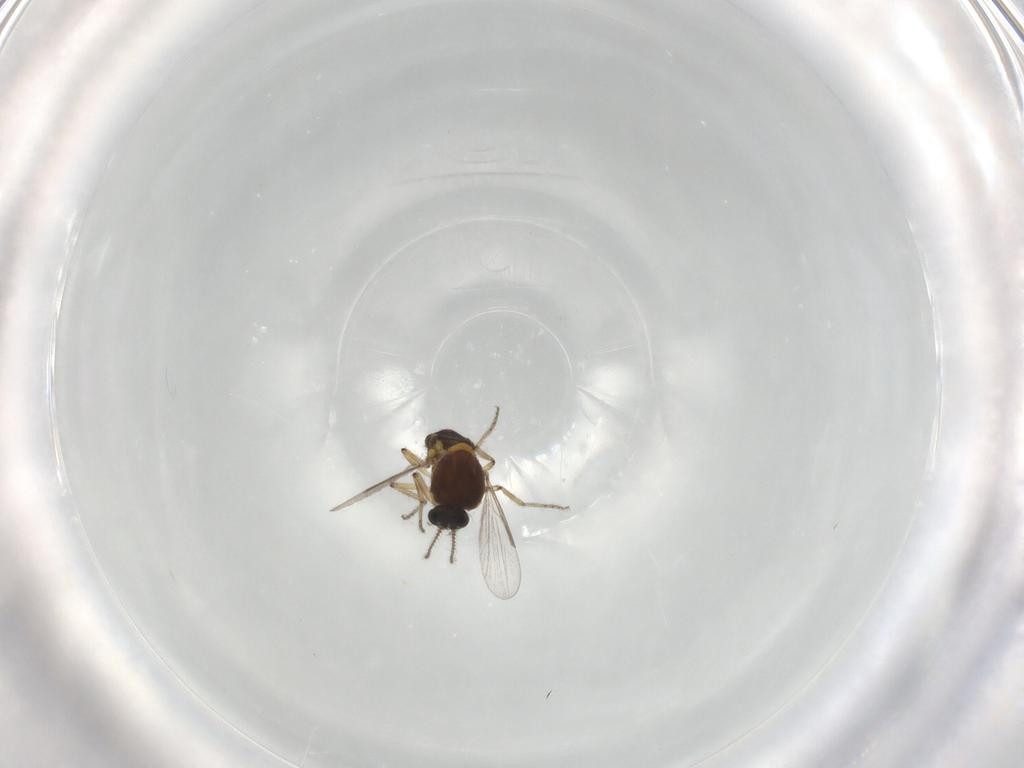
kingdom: Animalia
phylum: Arthropoda
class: Insecta
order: Diptera
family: Ceratopogonidae
